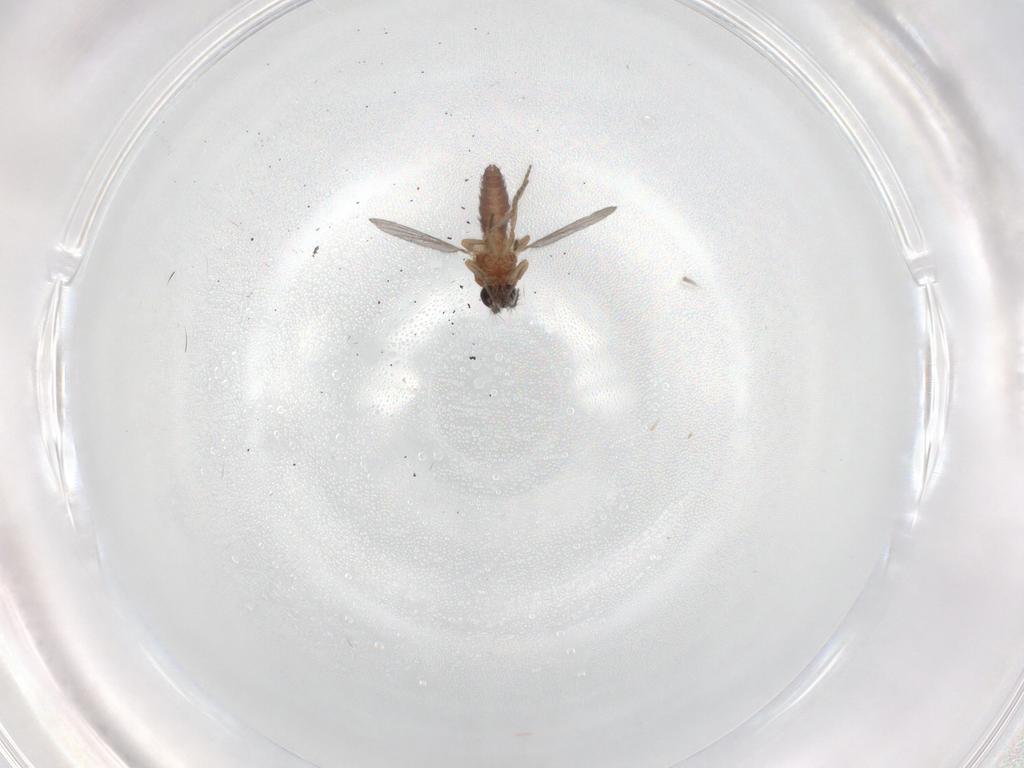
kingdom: Animalia
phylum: Arthropoda
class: Insecta
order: Diptera
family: Ceratopogonidae
